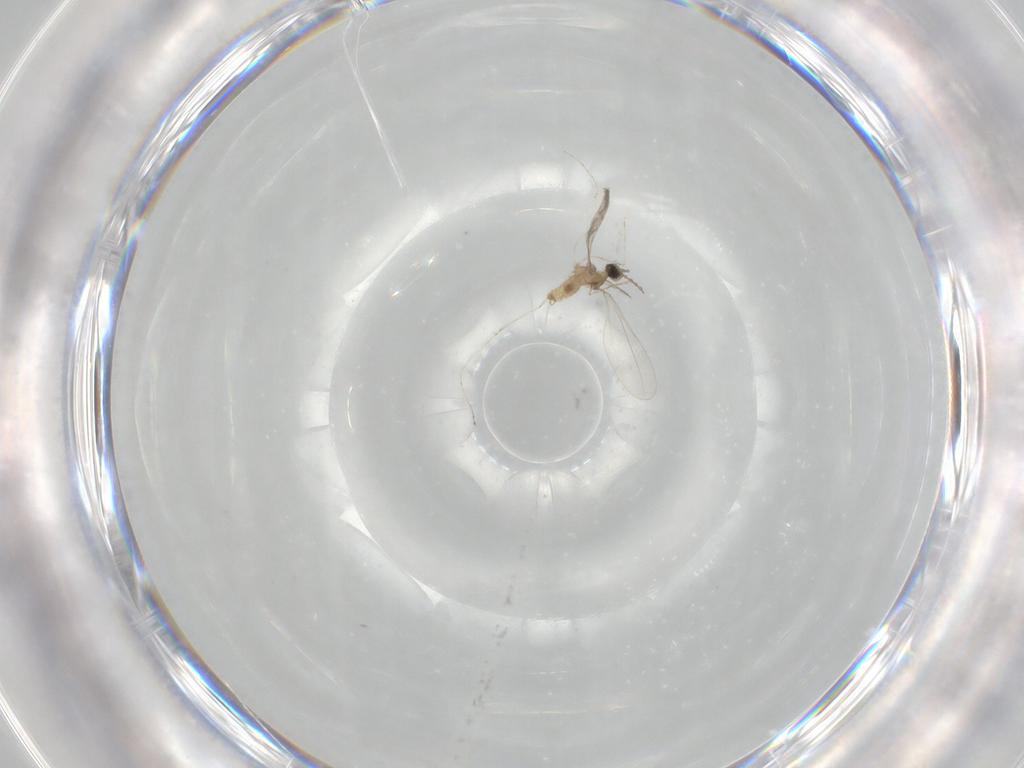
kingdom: Animalia
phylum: Arthropoda
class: Insecta
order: Diptera
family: Cecidomyiidae
